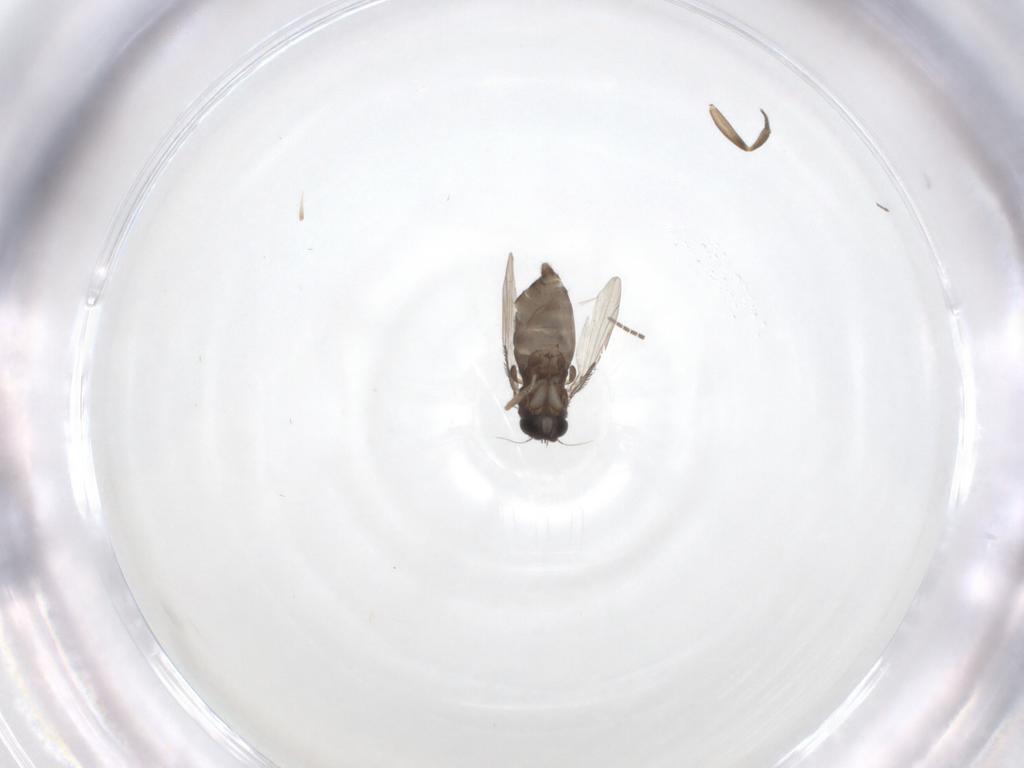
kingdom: Animalia
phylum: Arthropoda
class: Insecta
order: Diptera
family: Phoridae
